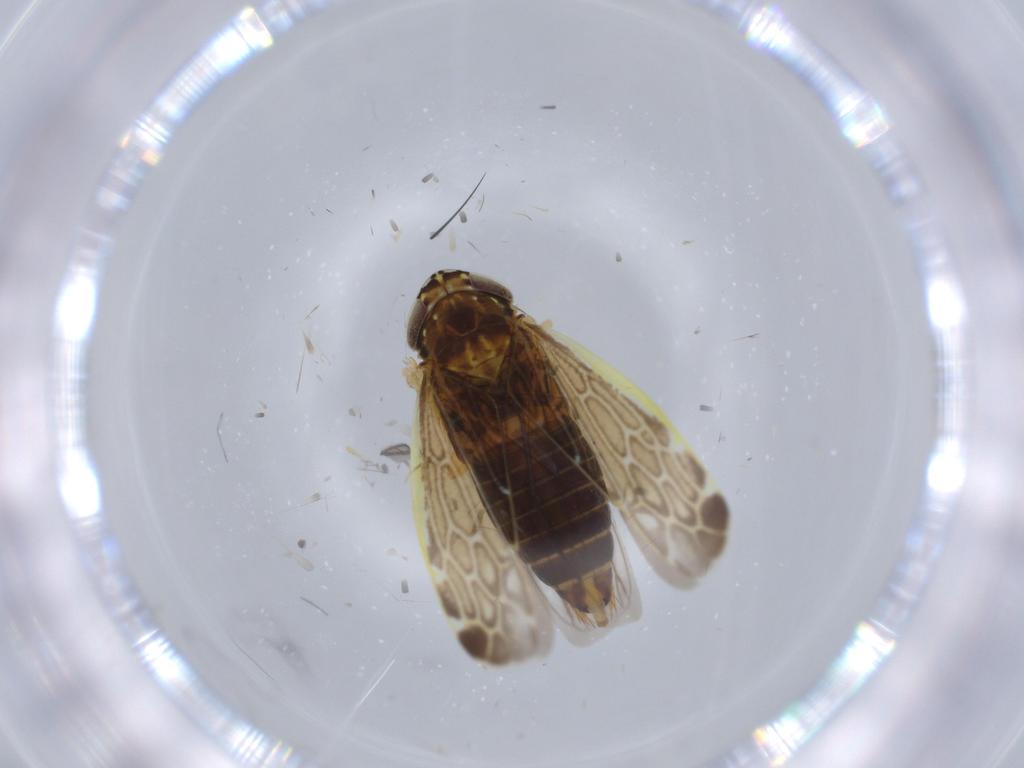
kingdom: Animalia
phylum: Arthropoda
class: Insecta
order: Hemiptera
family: Cicadellidae
